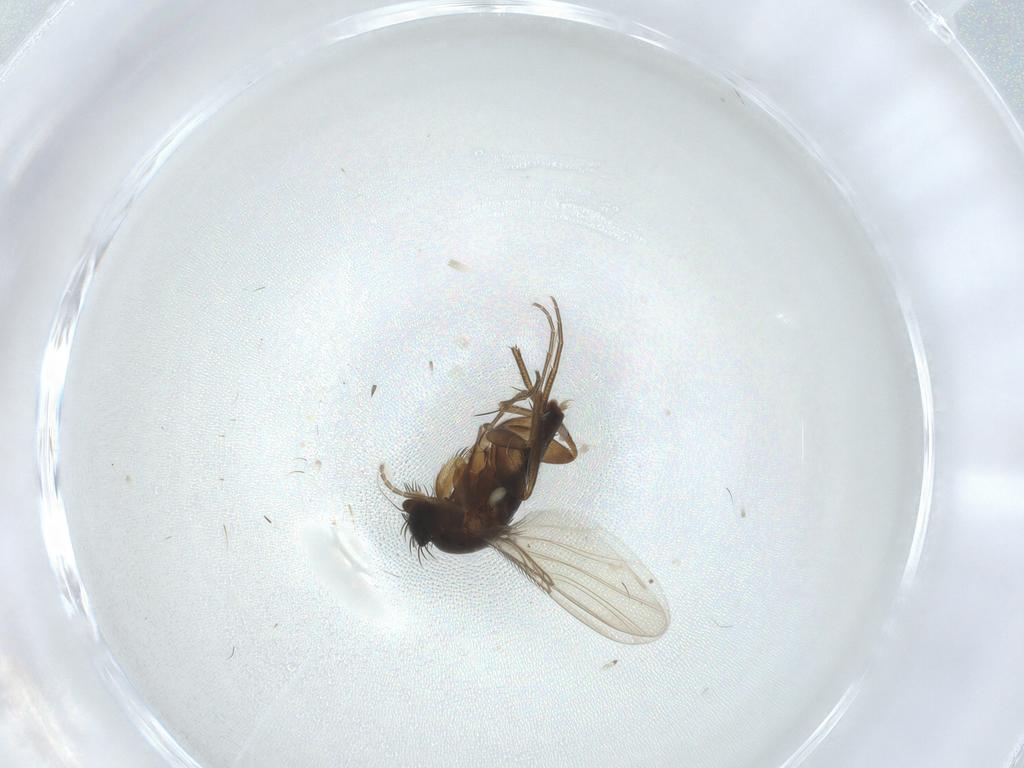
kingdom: Animalia
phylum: Arthropoda
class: Insecta
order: Diptera
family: Phoridae
